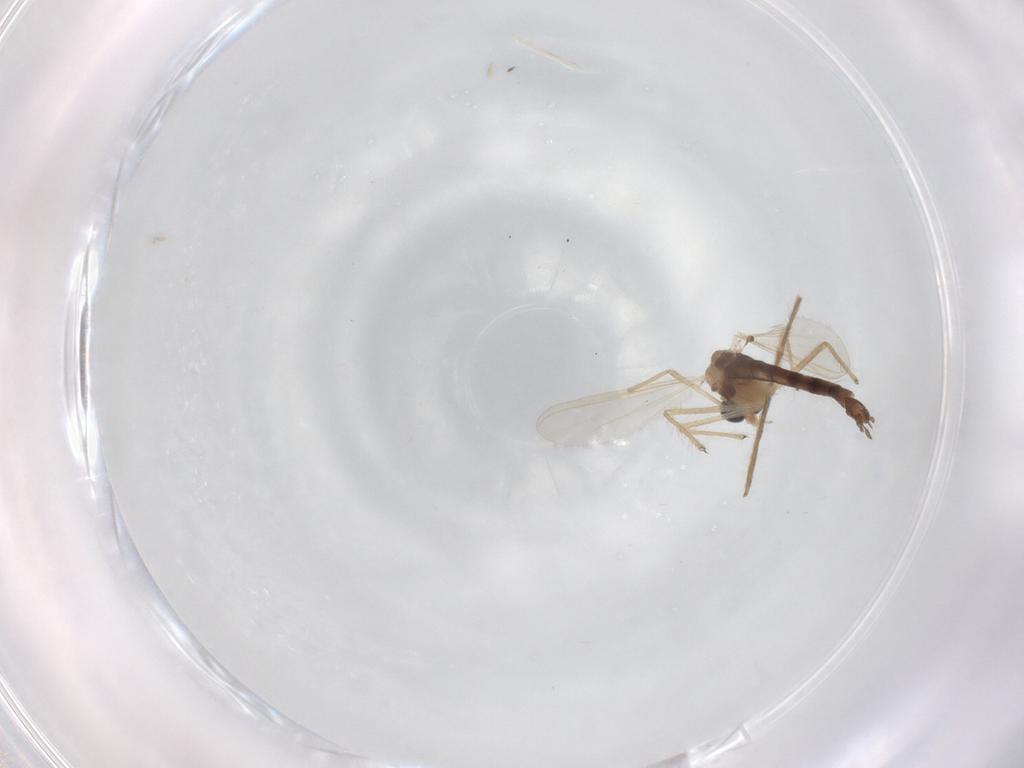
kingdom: Animalia
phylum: Arthropoda
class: Insecta
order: Diptera
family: Chironomidae
